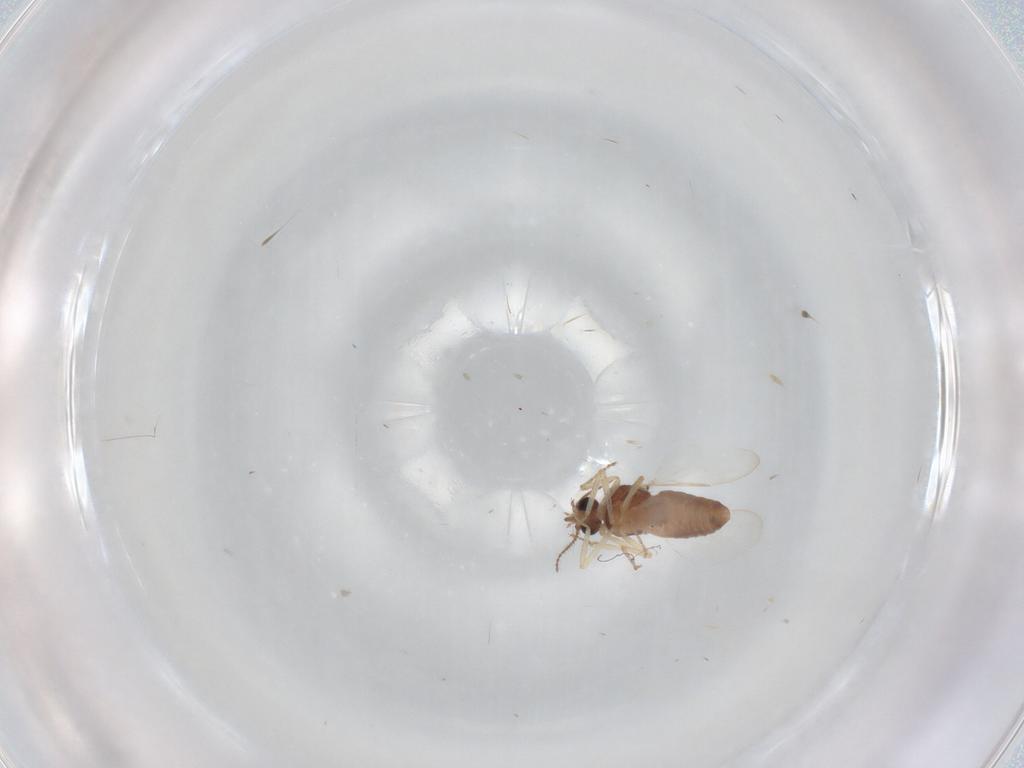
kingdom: Animalia
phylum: Arthropoda
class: Insecta
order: Diptera
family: Ceratopogonidae
